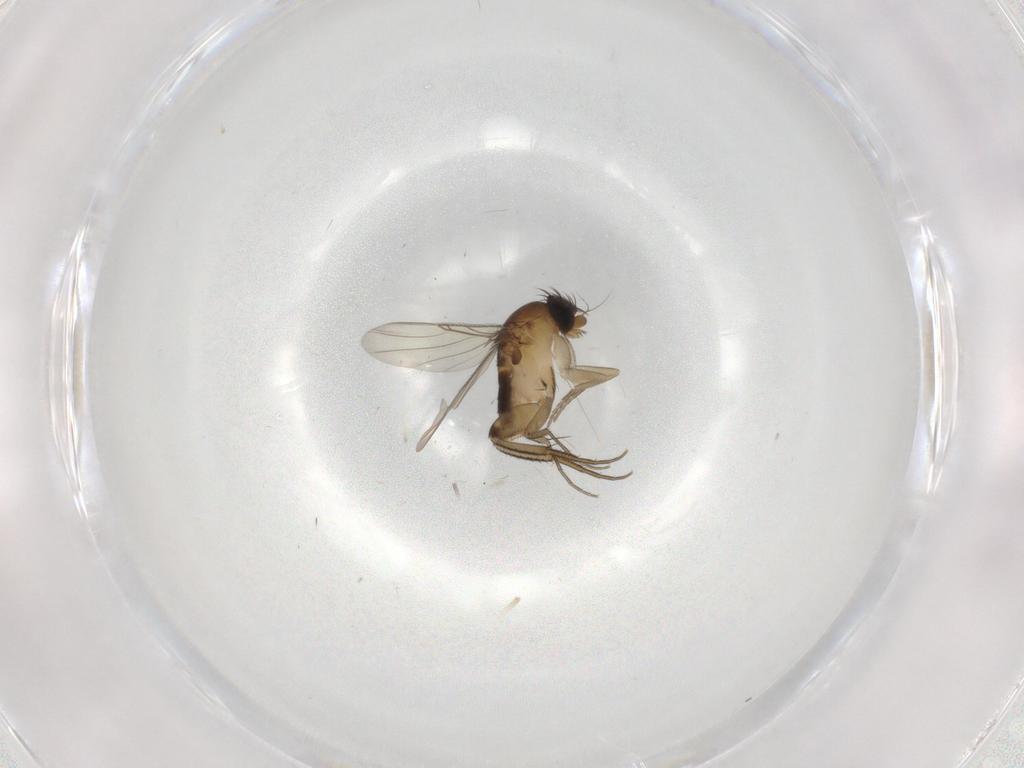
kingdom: Animalia
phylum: Arthropoda
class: Insecta
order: Diptera
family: Phoridae
